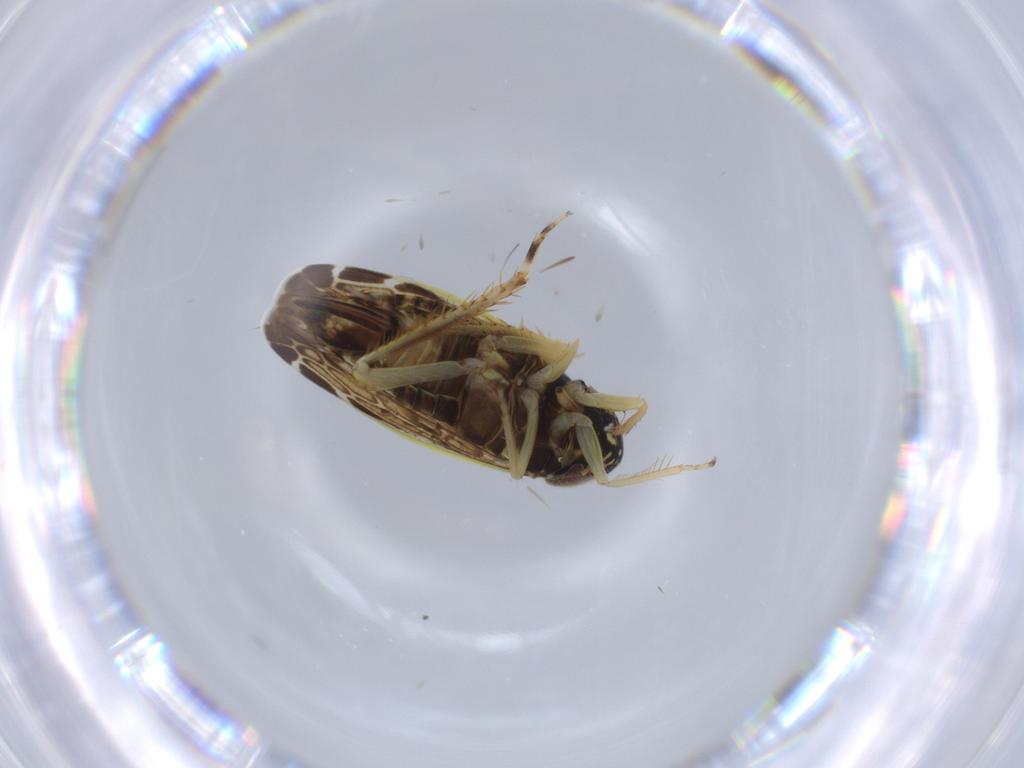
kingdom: Animalia
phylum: Arthropoda
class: Insecta
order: Hemiptera
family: Cicadellidae
